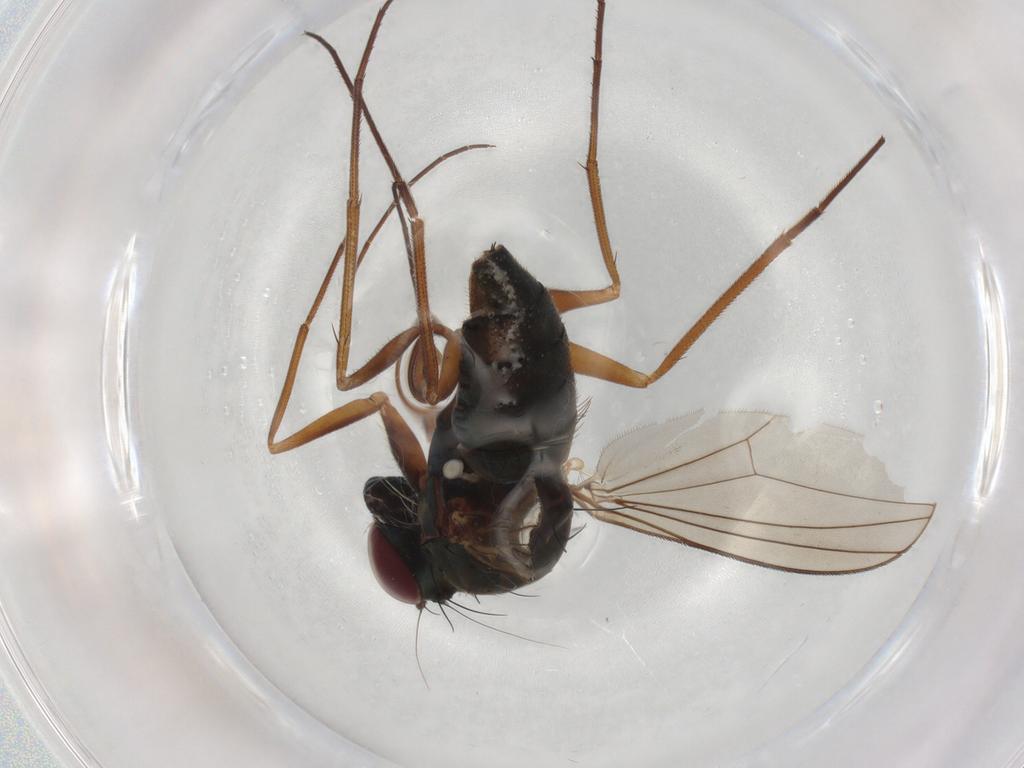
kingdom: Animalia
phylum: Arthropoda
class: Insecta
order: Diptera
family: Dolichopodidae
